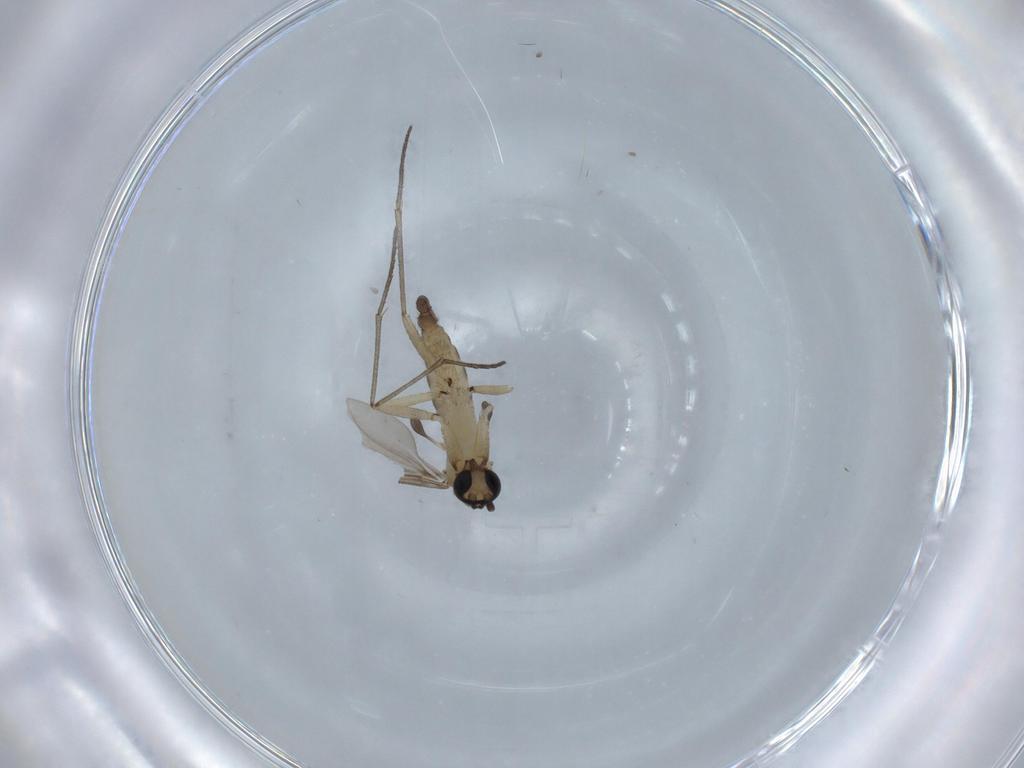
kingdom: Animalia
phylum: Arthropoda
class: Insecta
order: Diptera
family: Sciaridae
